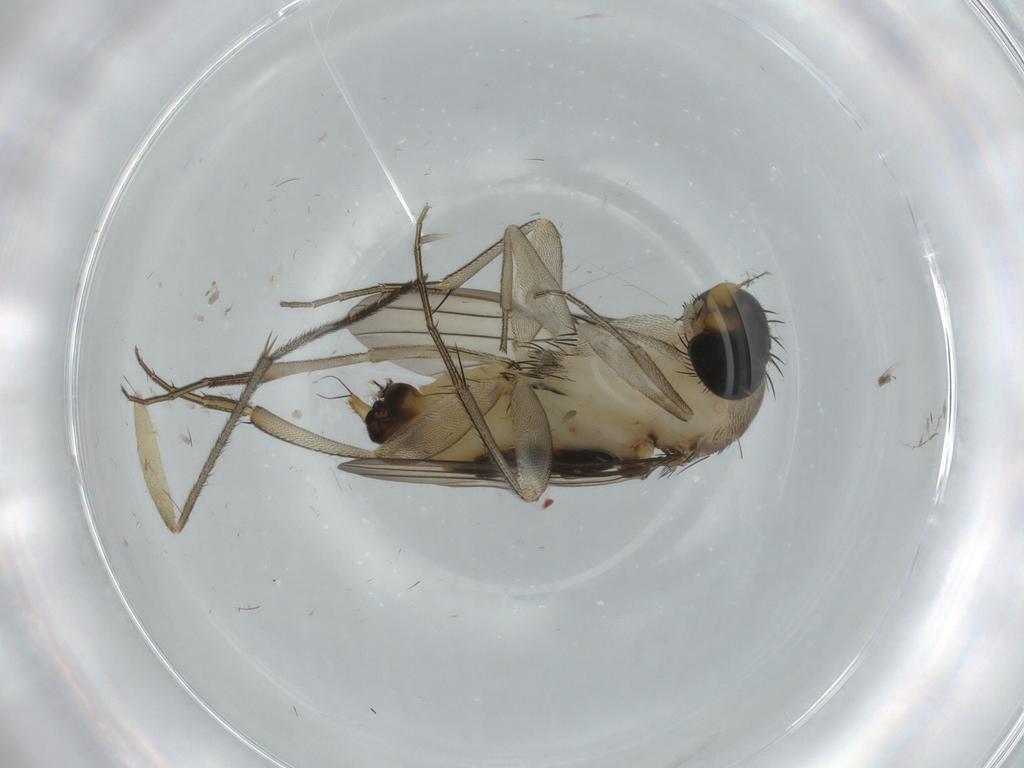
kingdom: Animalia
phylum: Arthropoda
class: Insecta
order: Diptera
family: Phoridae
